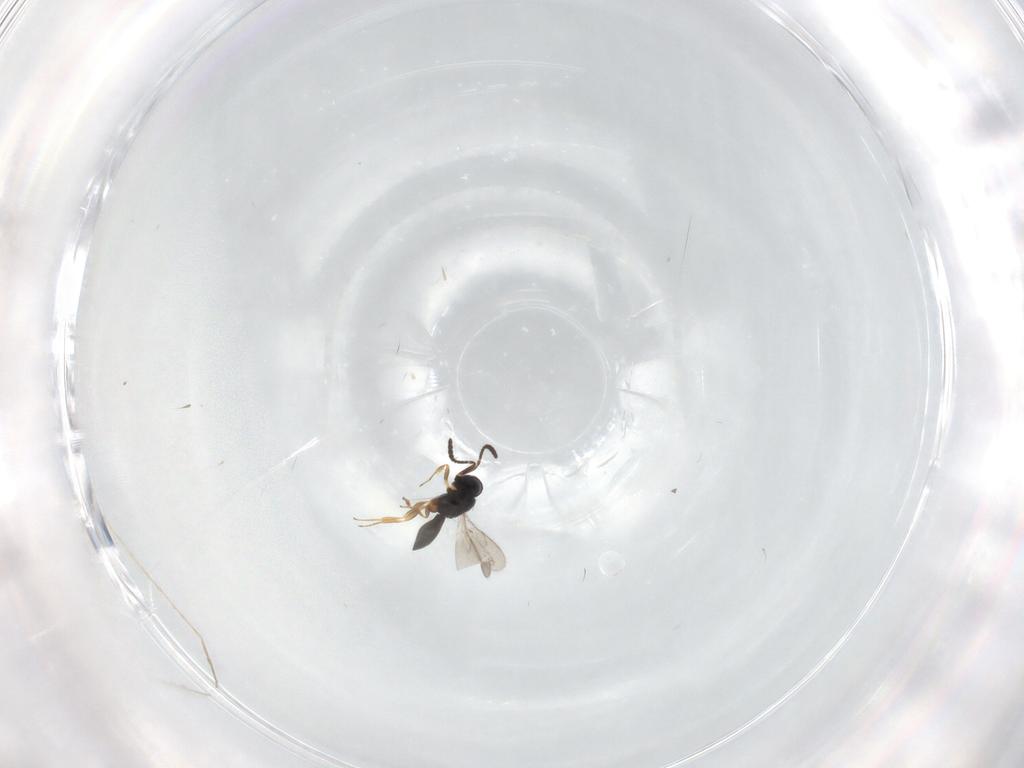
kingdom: Animalia
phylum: Arthropoda
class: Insecta
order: Hymenoptera
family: Scelionidae
